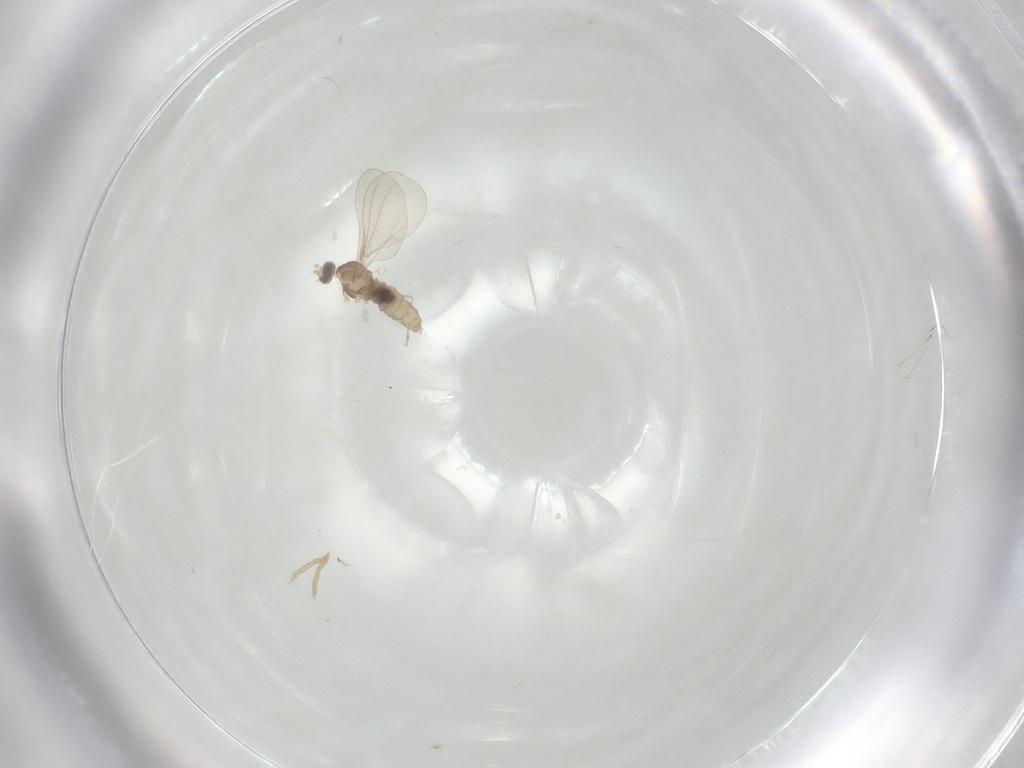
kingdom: Animalia
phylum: Arthropoda
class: Insecta
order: Diptera
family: Cecidomyiidae
